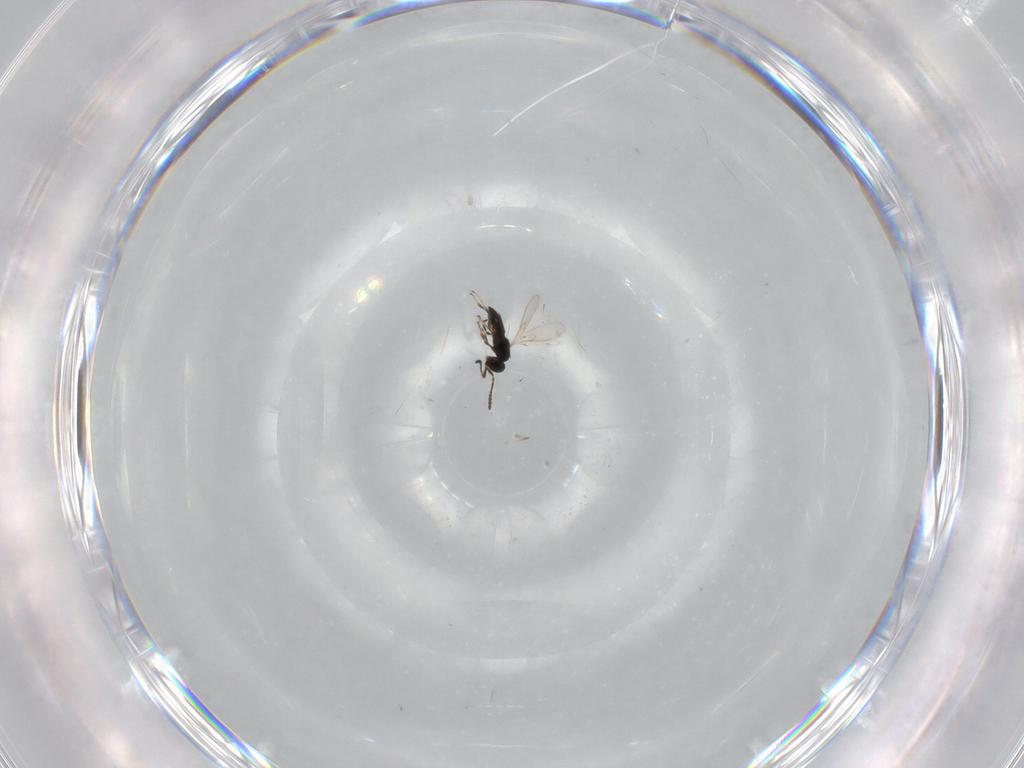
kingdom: Animalia
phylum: Arthropoda
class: Insecta
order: Hymenoptera
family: Scelionidae
